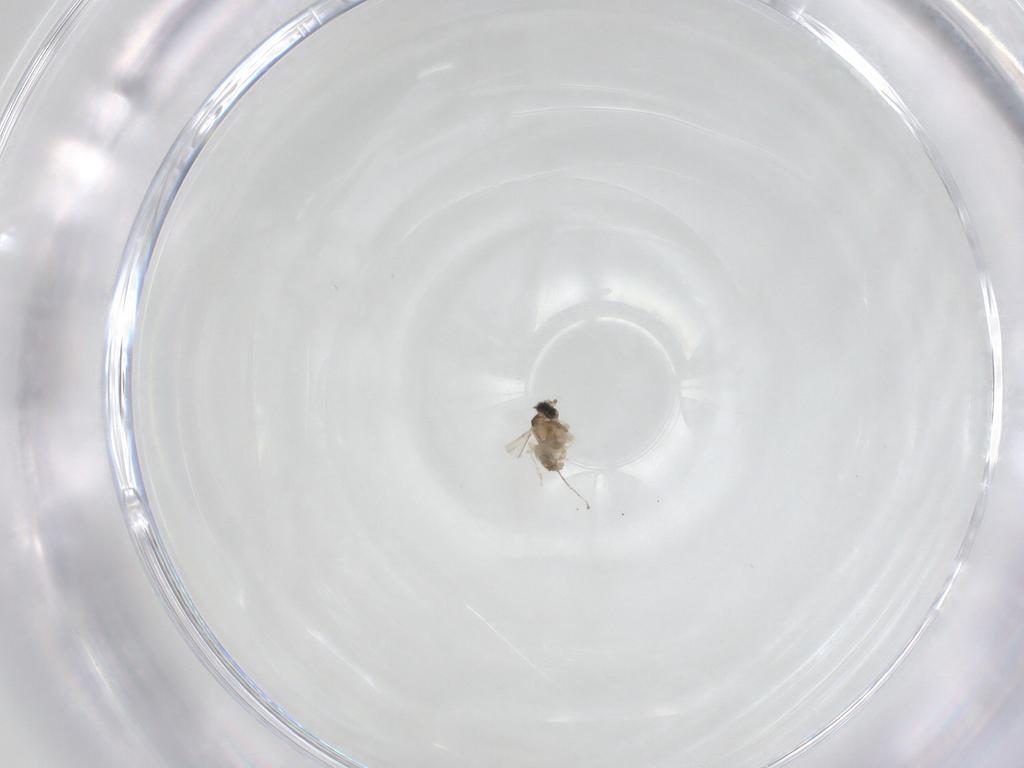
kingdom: Animalia
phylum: Arthropoda
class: Insecta
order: Diptera
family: Cecidomyiidae
